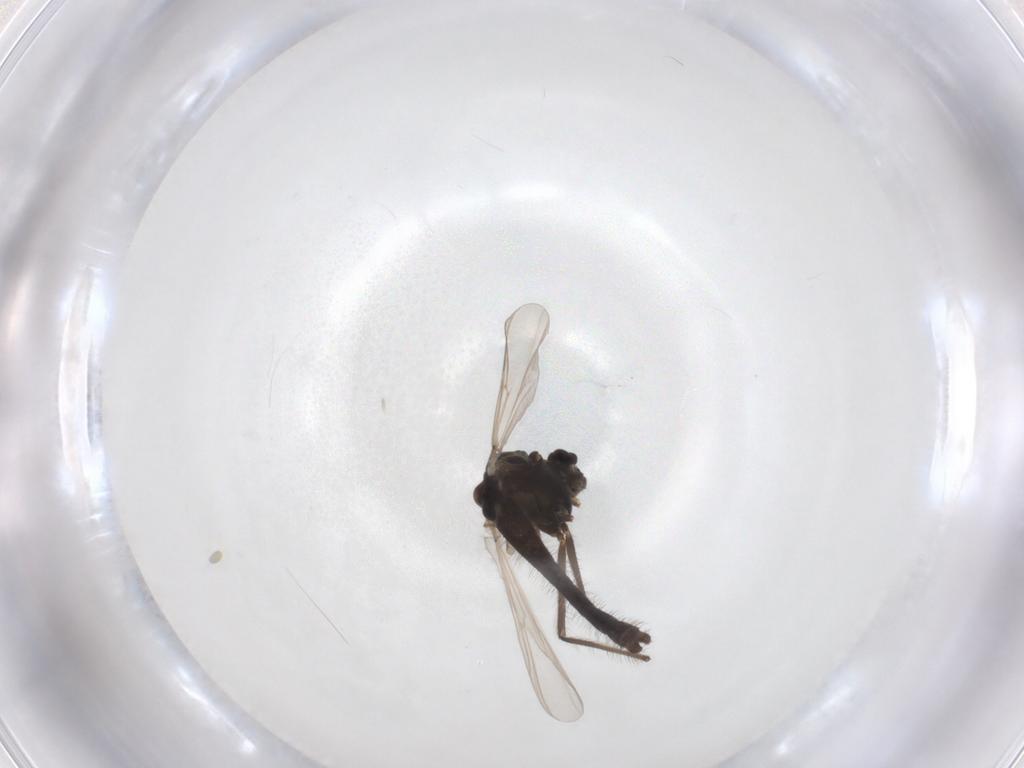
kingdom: Animalia
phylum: Arthropoda
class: Insecta
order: Diptera
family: Chironomidae
